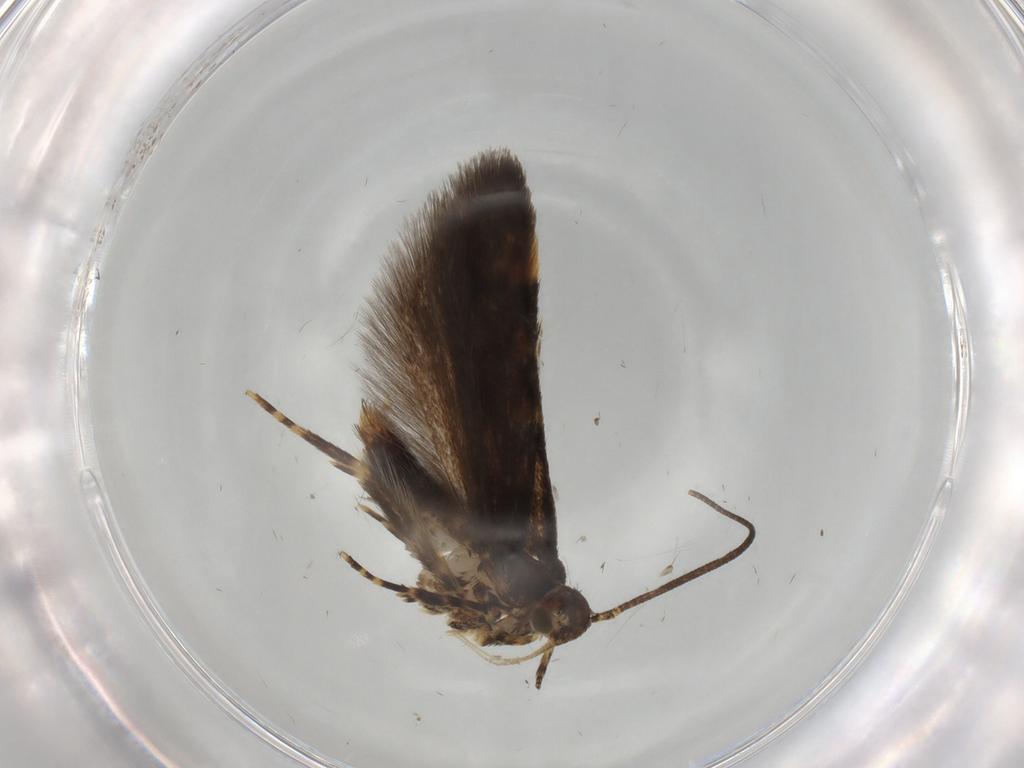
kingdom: Animalia
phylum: Arthropoda
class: Insecta
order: Lepidoptera
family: Oecophoridae
